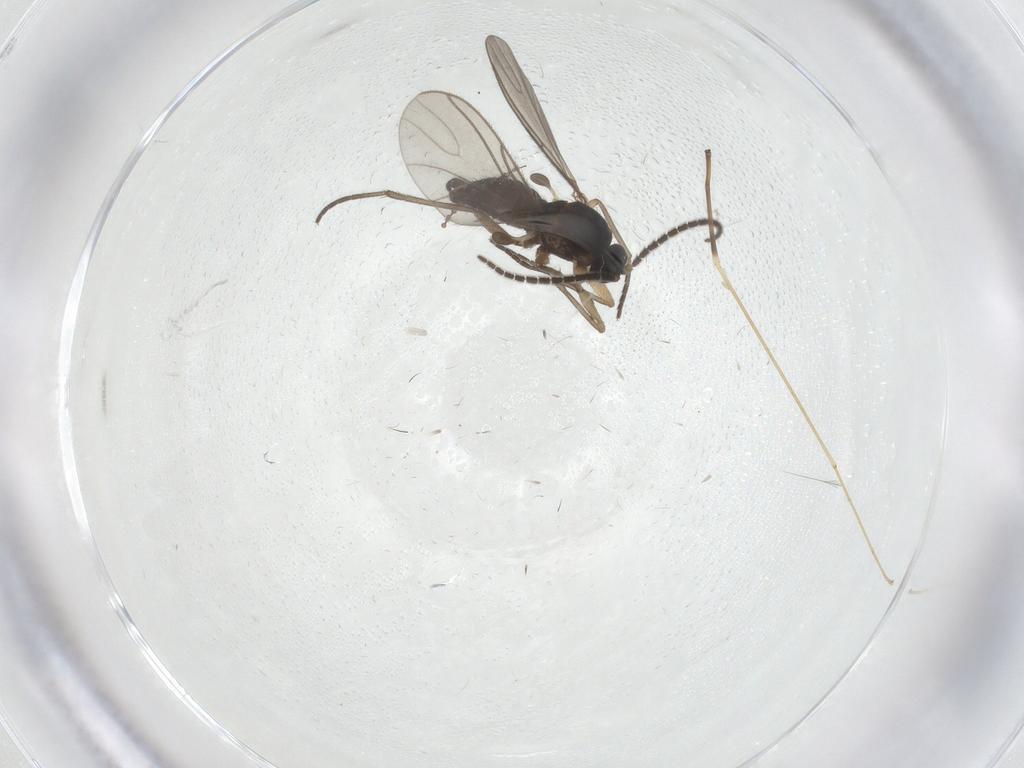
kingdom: Animalia
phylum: Arthropoda
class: Insecta
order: Diptera
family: Sciaridae
